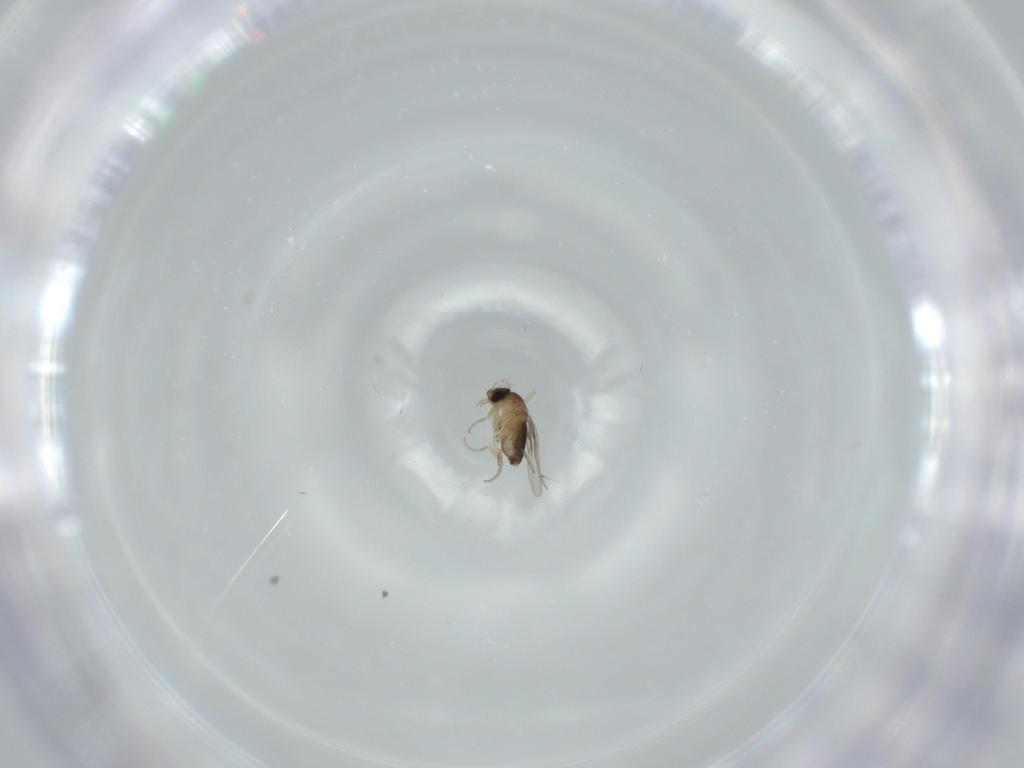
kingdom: Animalia
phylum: Arthropoda
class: Insecta
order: Diptera
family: Phoridae
